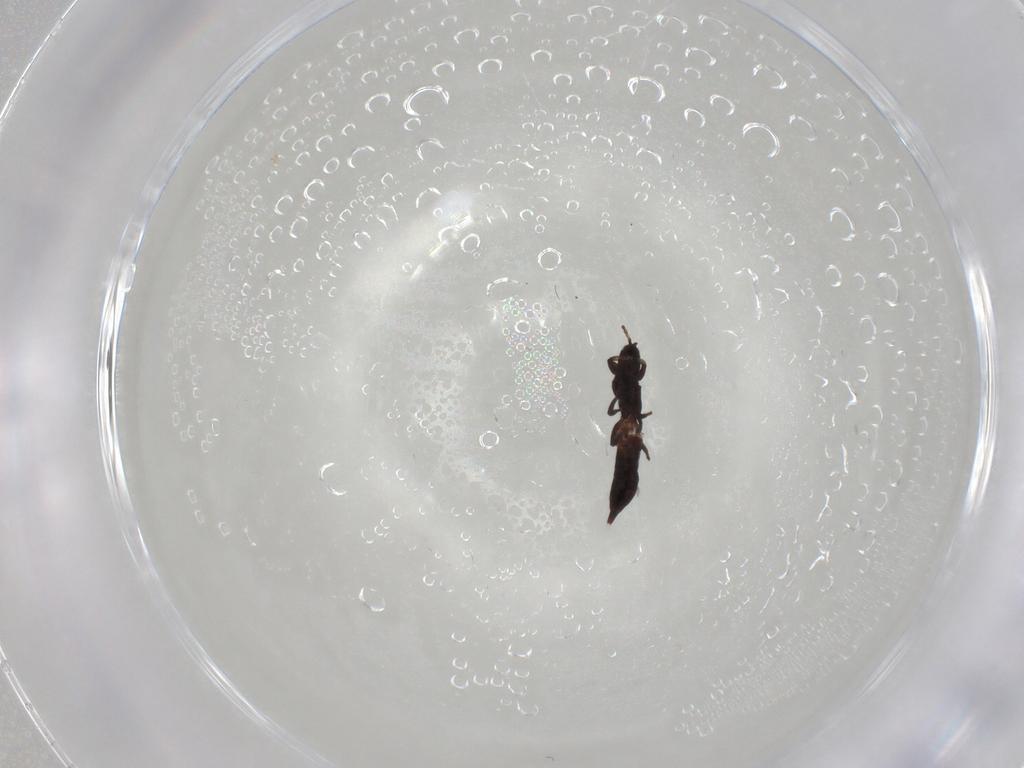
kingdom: Animalia
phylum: Arthropoda
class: Insecta
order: Thysanoptera
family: Phlaeothripidae
